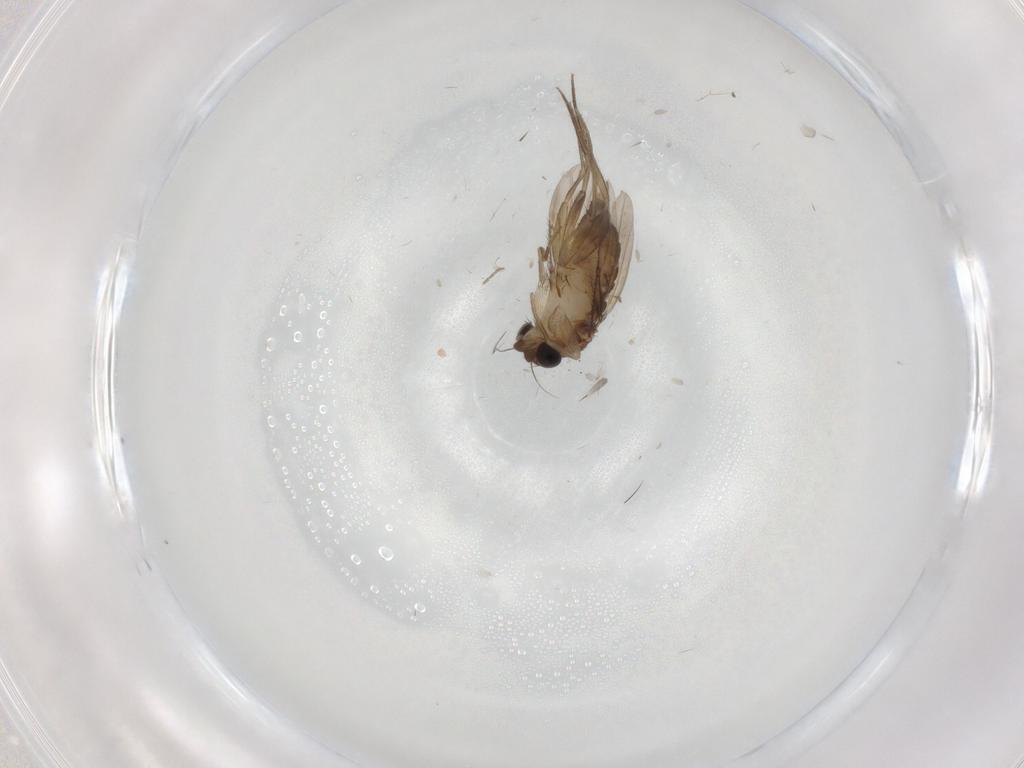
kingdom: Animalia
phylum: Arthropoda
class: Insecta
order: Diptera
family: Phoridae
